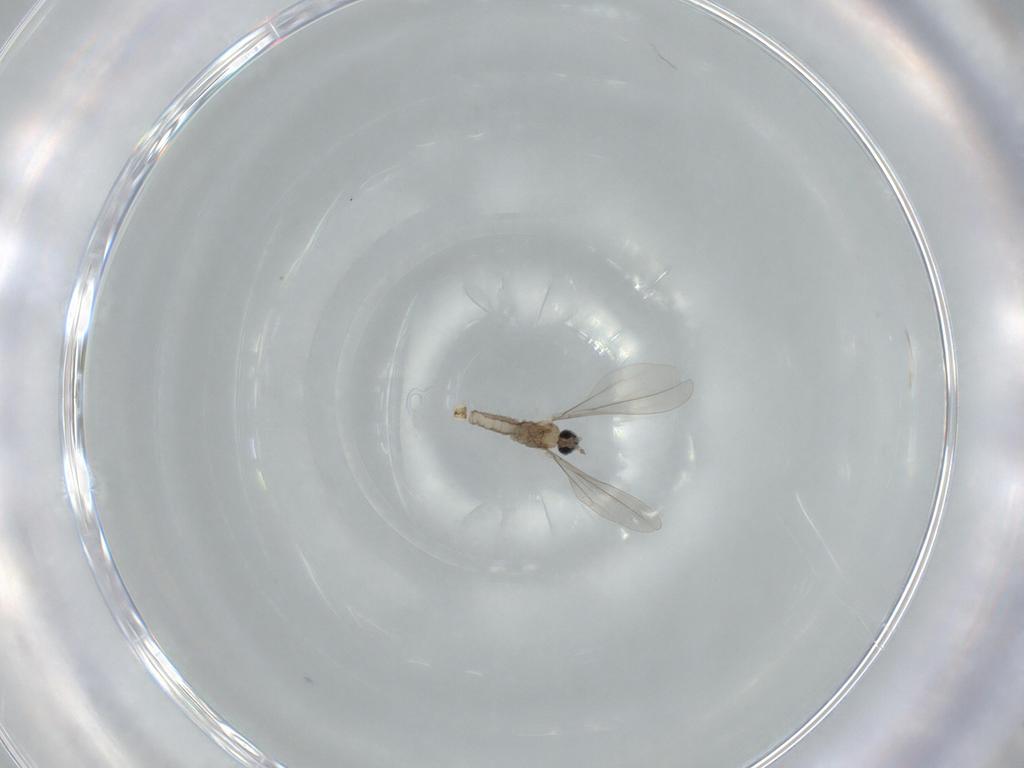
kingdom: Animalia
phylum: Arthropoda
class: Insecta
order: Diptera
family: Cecidomyiidae
